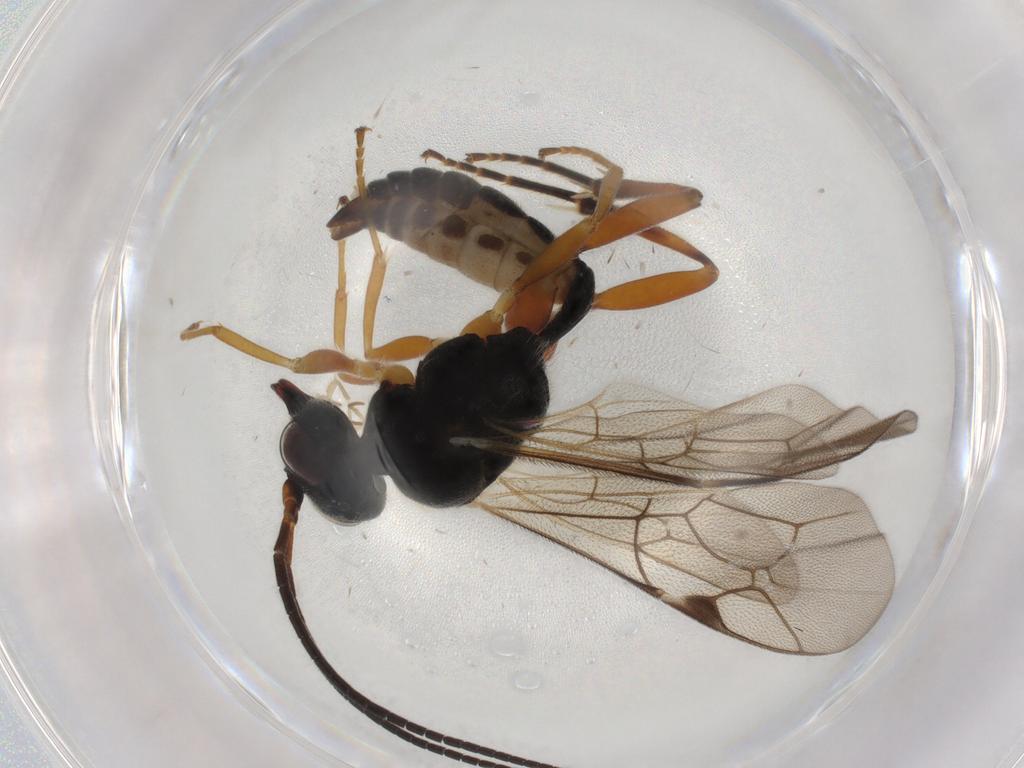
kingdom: Animalia
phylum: Arthropoda
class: Insecta
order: Hymenoptera
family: Ichneumonidae
